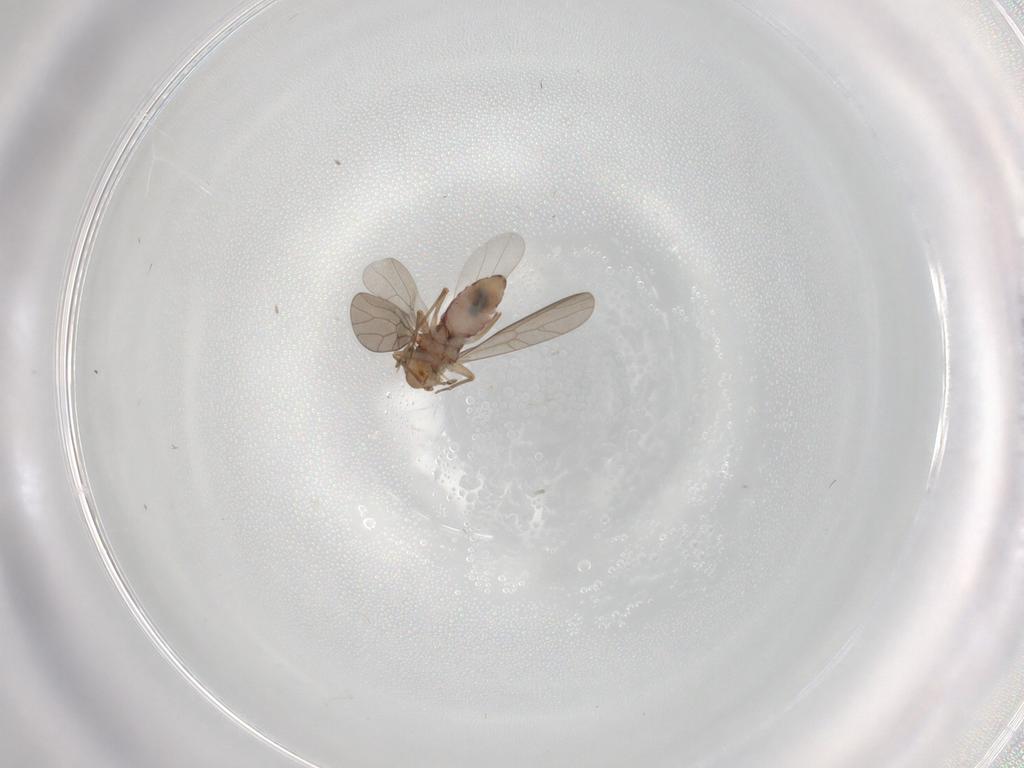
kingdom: Animalia
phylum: Arthropoda
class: Insecta
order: Psocodea
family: Lepidopsocidae
